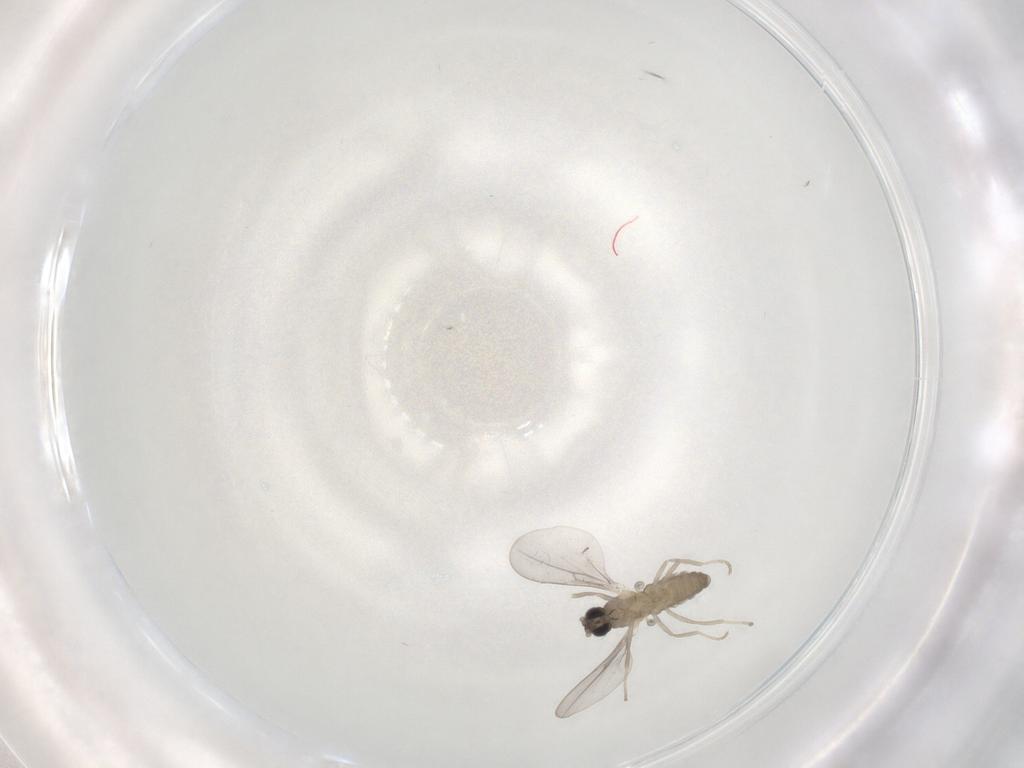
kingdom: Animalia
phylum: Arthropoda
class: Insecta
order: Diptera
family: Cecidomyiidae
